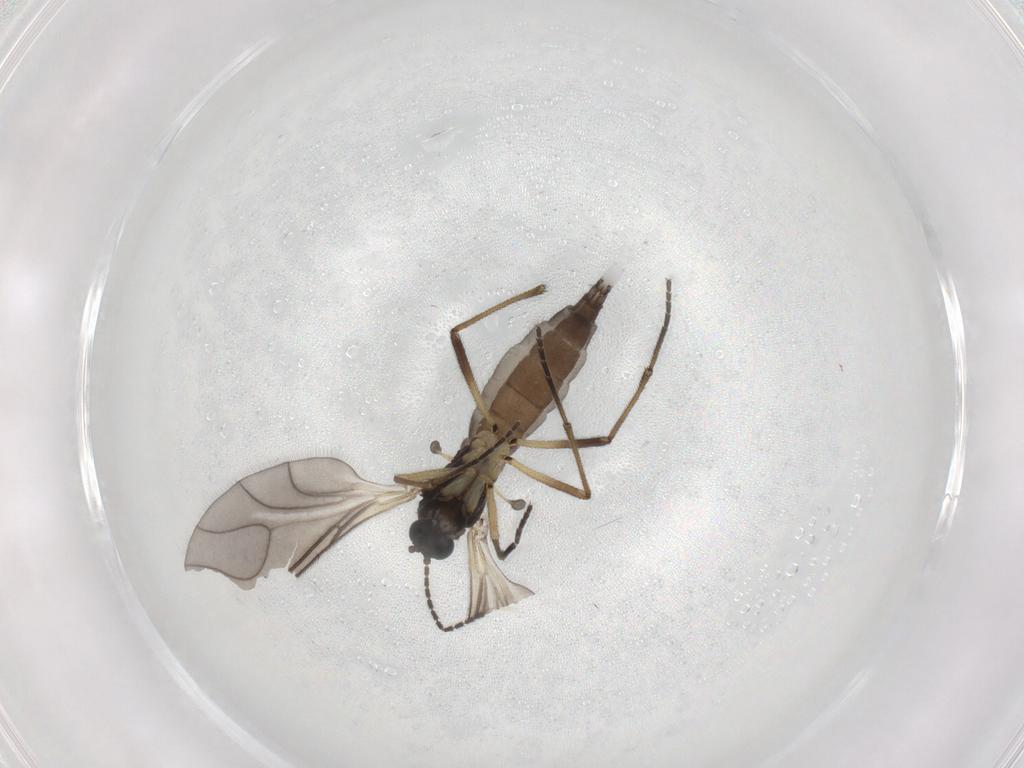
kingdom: Animalia
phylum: Arthropoda
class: Insecta
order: Diptera
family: Sciaridae
